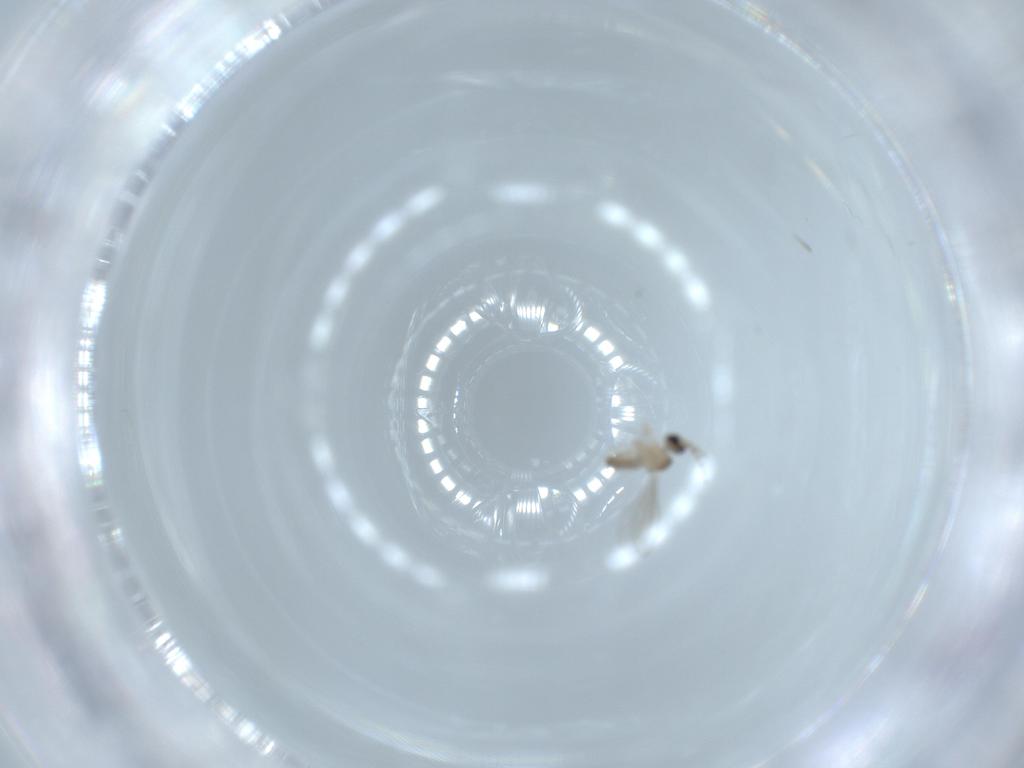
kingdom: Animalia
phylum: Arthropoda
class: Insecta
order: Diptera
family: Cecidomyiidae
